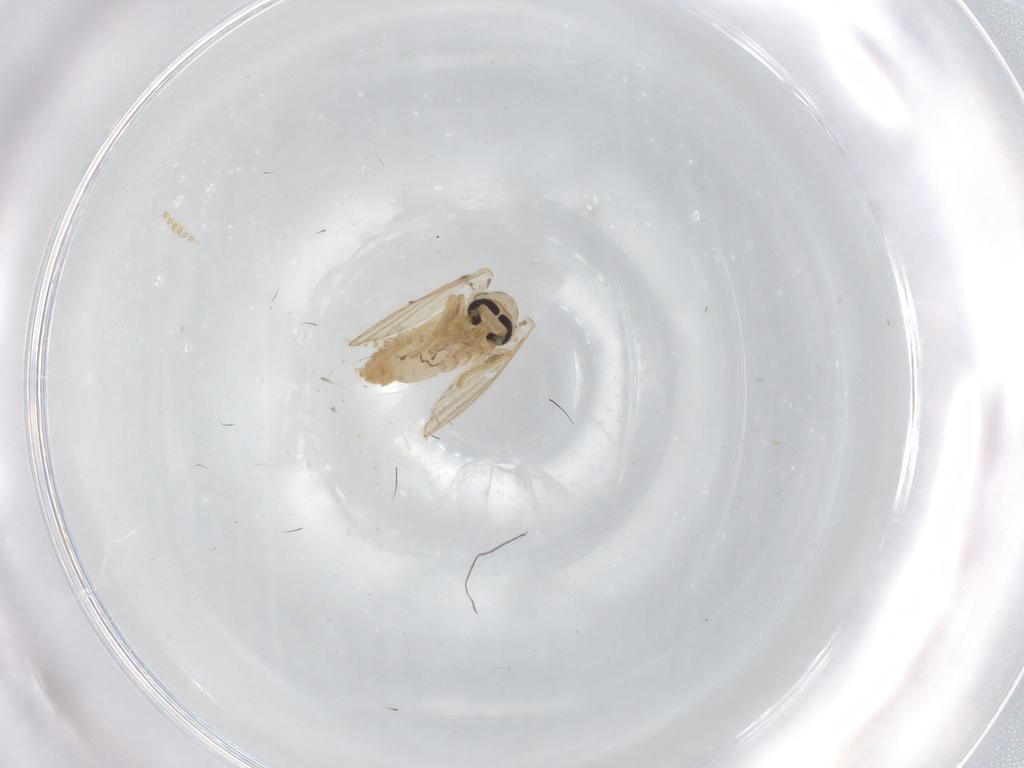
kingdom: Animalia
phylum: Arthropoda
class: Insecta
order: Diptera
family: Psychodidae
